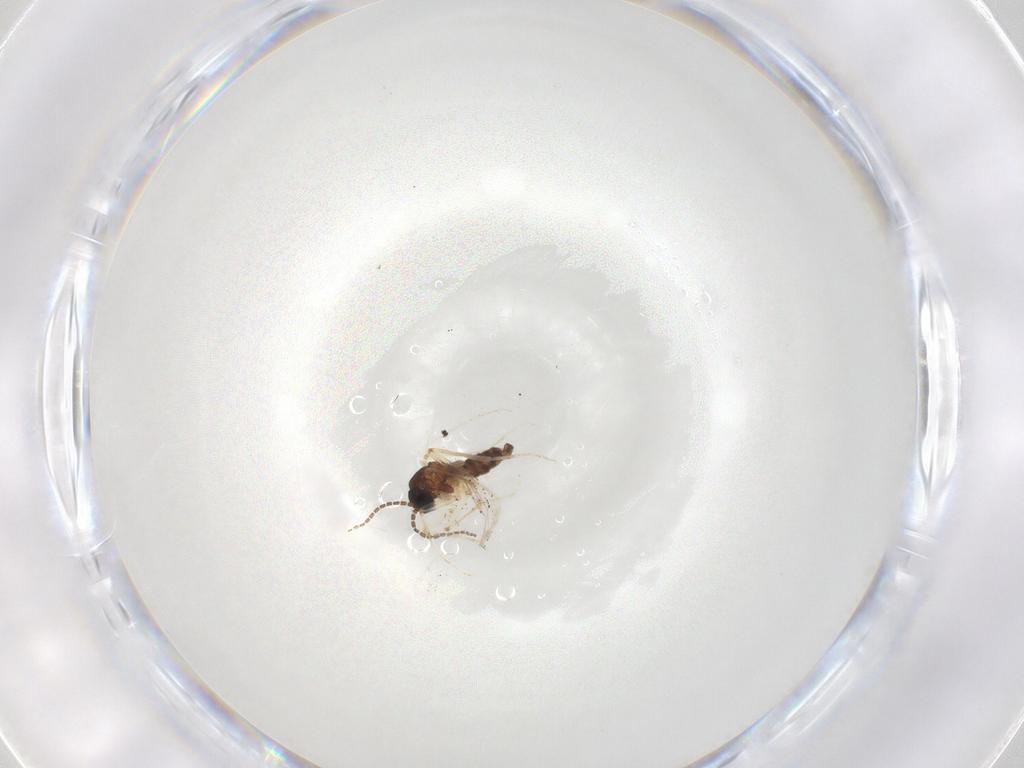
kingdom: Animalia
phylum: Arthropoda
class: Insecta
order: Diptera
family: Sciaridae
